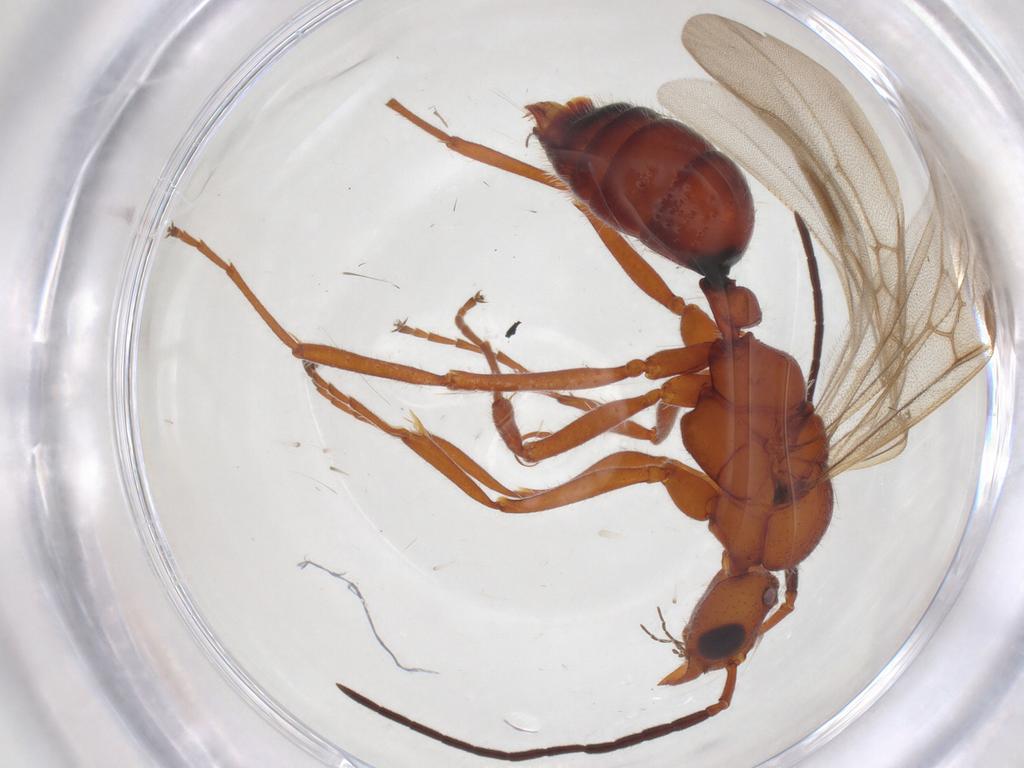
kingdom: Animalia
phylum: Arthropoda
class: Insecta
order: Hymenoptera
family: Formicidae
